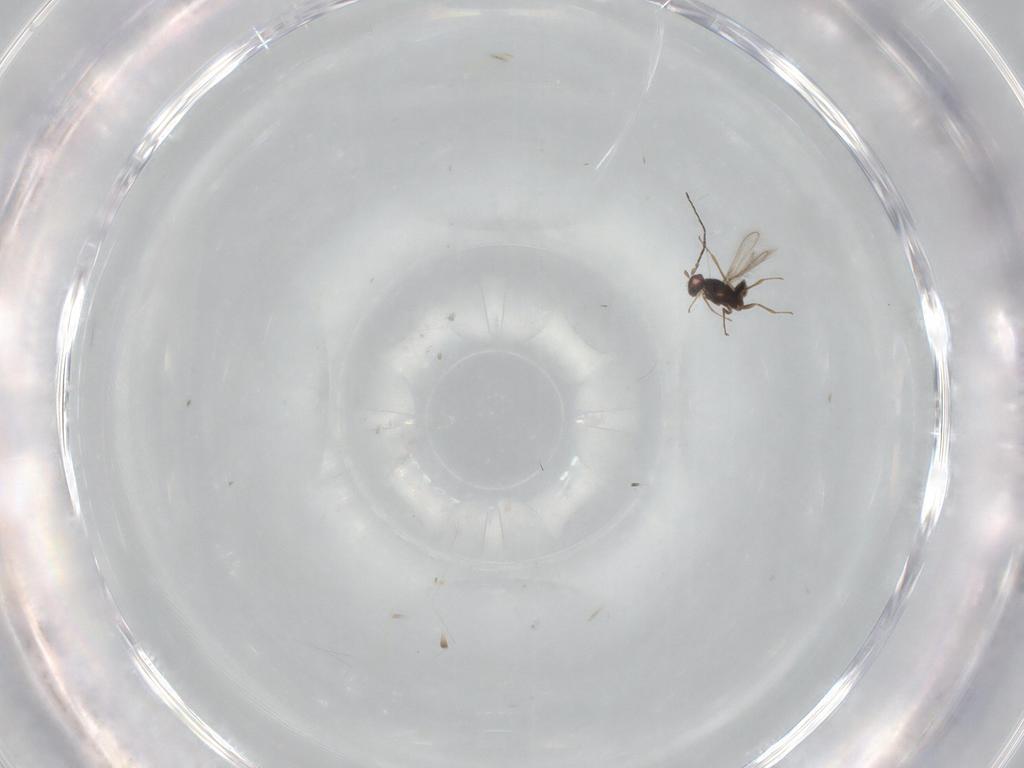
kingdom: Animalia
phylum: Arthropoda
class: Insecta
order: Hymenoptera
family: Mymaridae
